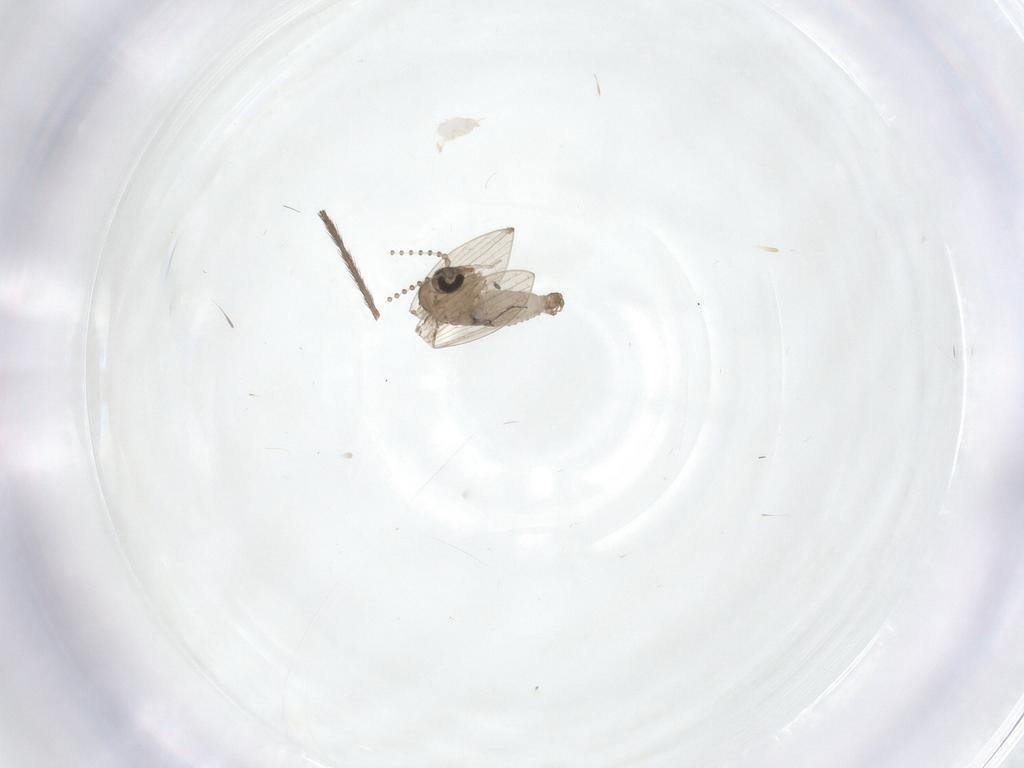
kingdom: Animalia
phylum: Arthropoda
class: Insecta
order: Diptera
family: Psychodidae
